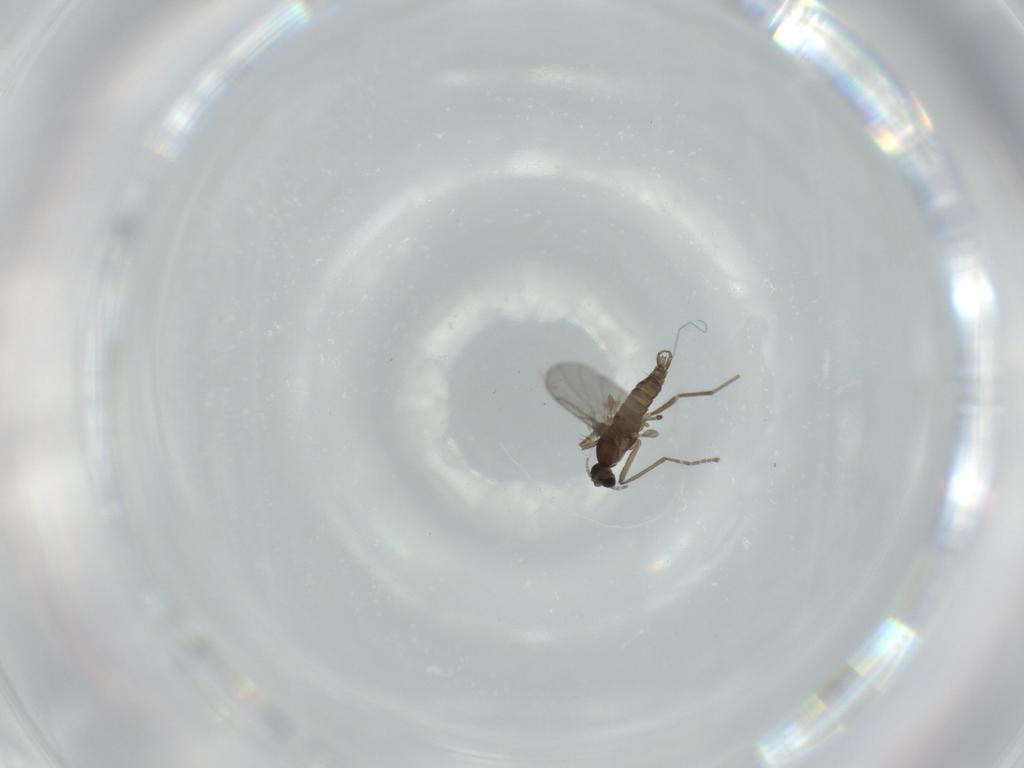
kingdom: Animalia
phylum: Arthropoda
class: Insecta
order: Diptera
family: Cecidomyiidae
